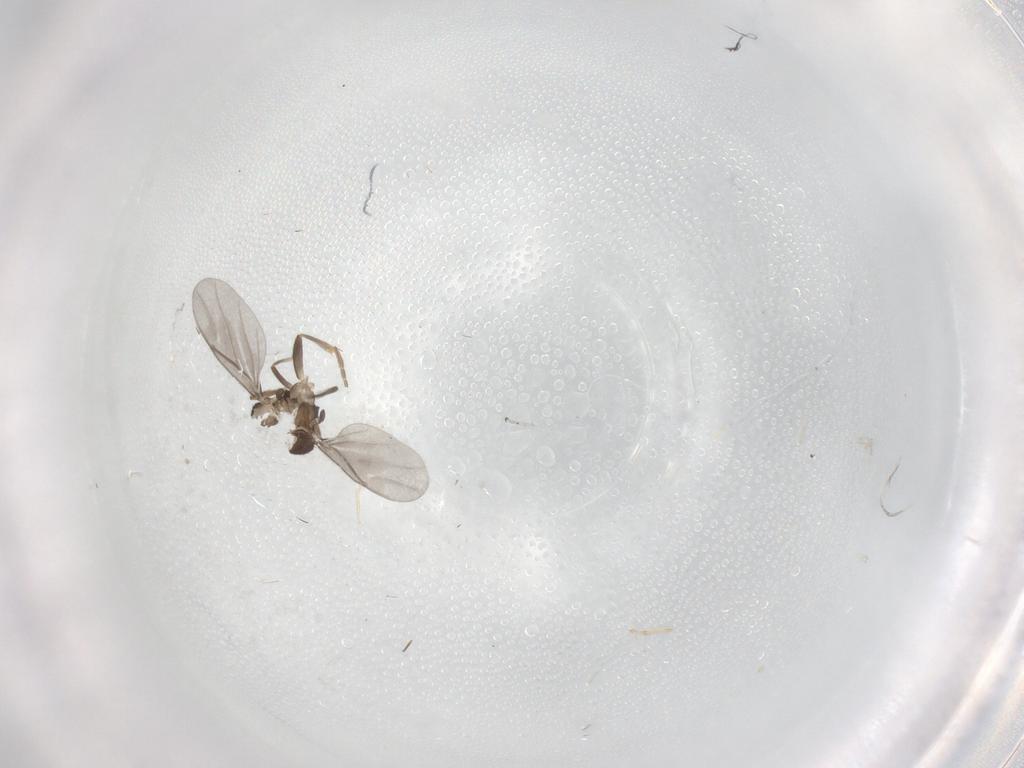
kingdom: Animalia
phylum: Arthropoda
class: Insecta
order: Diptera
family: Cecidomyiidae
